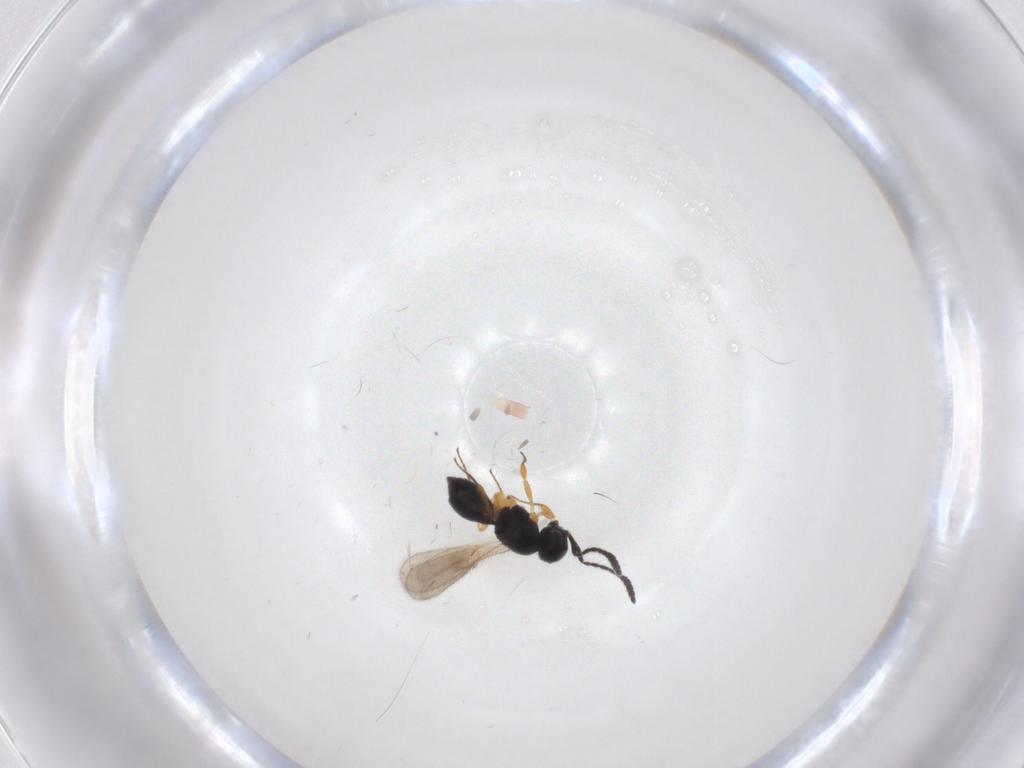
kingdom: Animalia
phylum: Arthropoda
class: Insecta
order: Hymenoptera
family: Scelionidae
